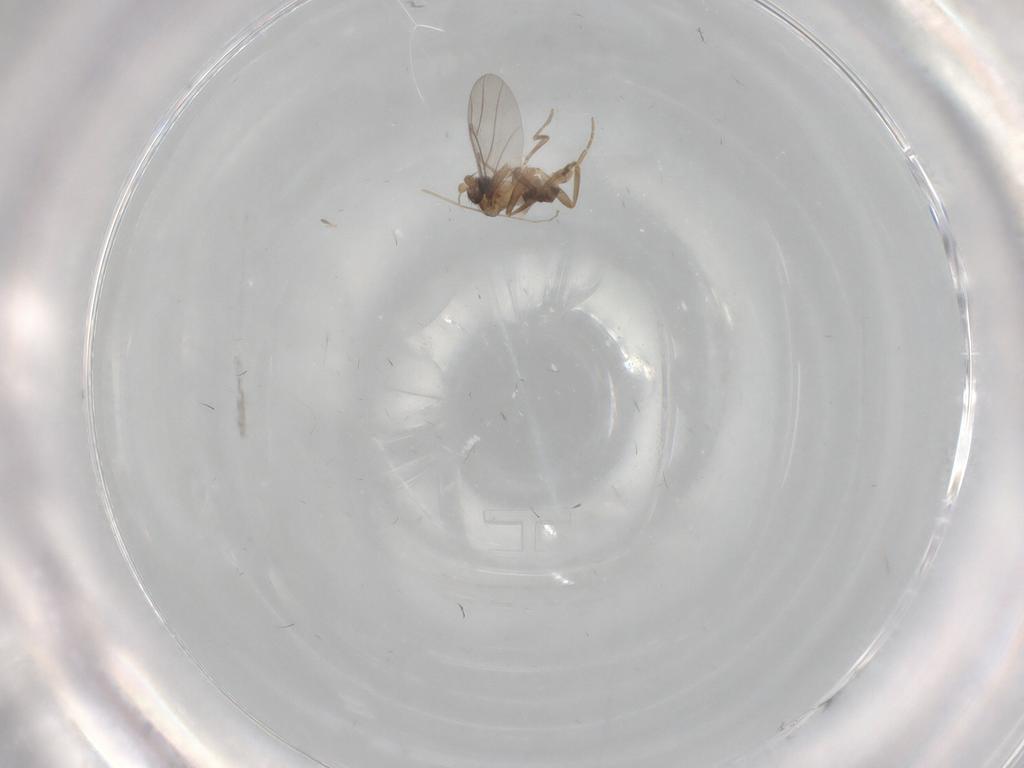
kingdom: Animalia
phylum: Arthropoda
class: Insecta
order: Diptera
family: Cecidomyiidae
